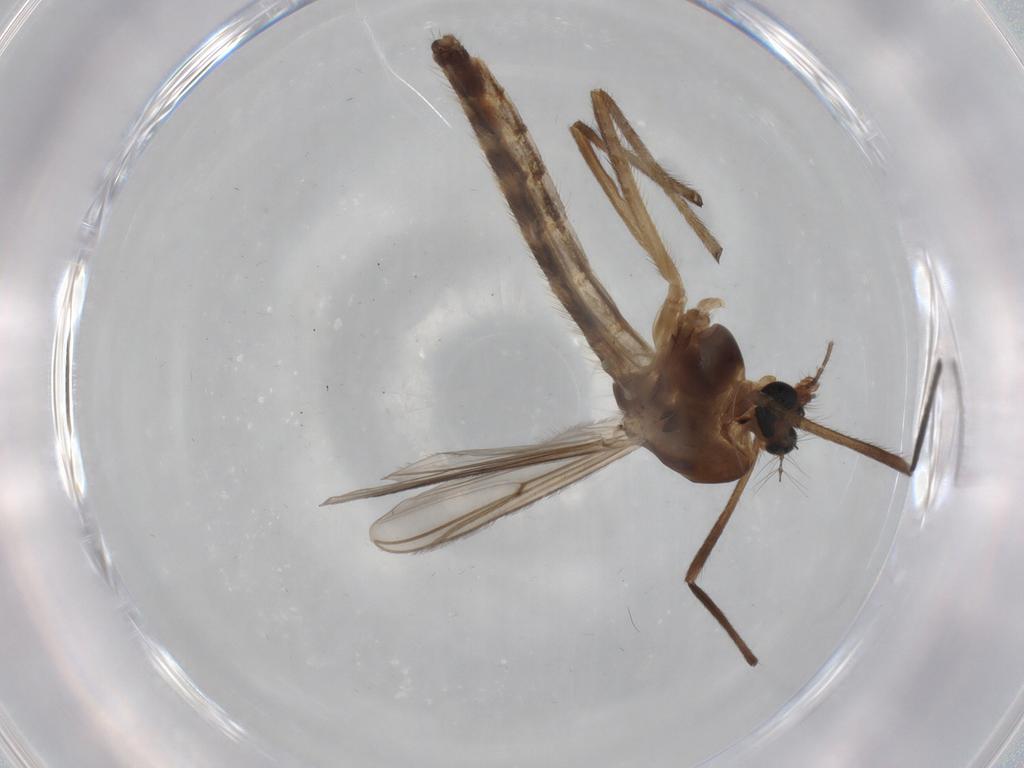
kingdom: Animalia
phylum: Arthropoda
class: Insecta
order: Diptera
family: Chironomidae
